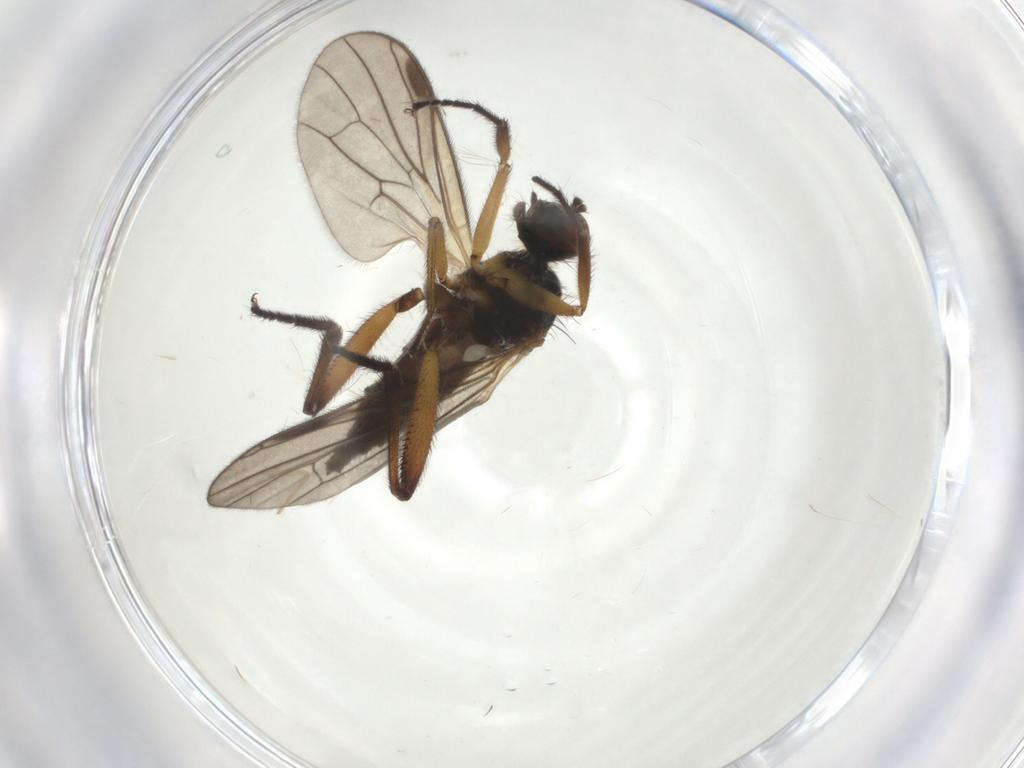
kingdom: Animalia
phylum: Arthropoda
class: Insecta
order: Diptera
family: Hybotidae
